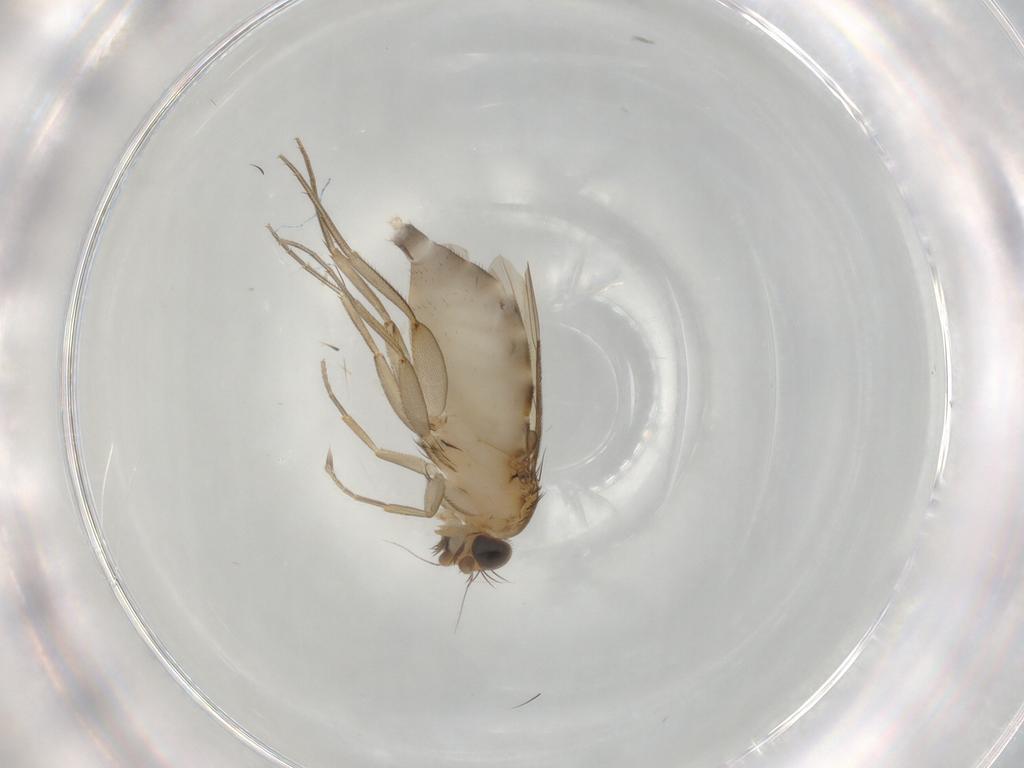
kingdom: Animalia
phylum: Arthropoda
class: Insecta
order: Diptera
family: Phoridae
